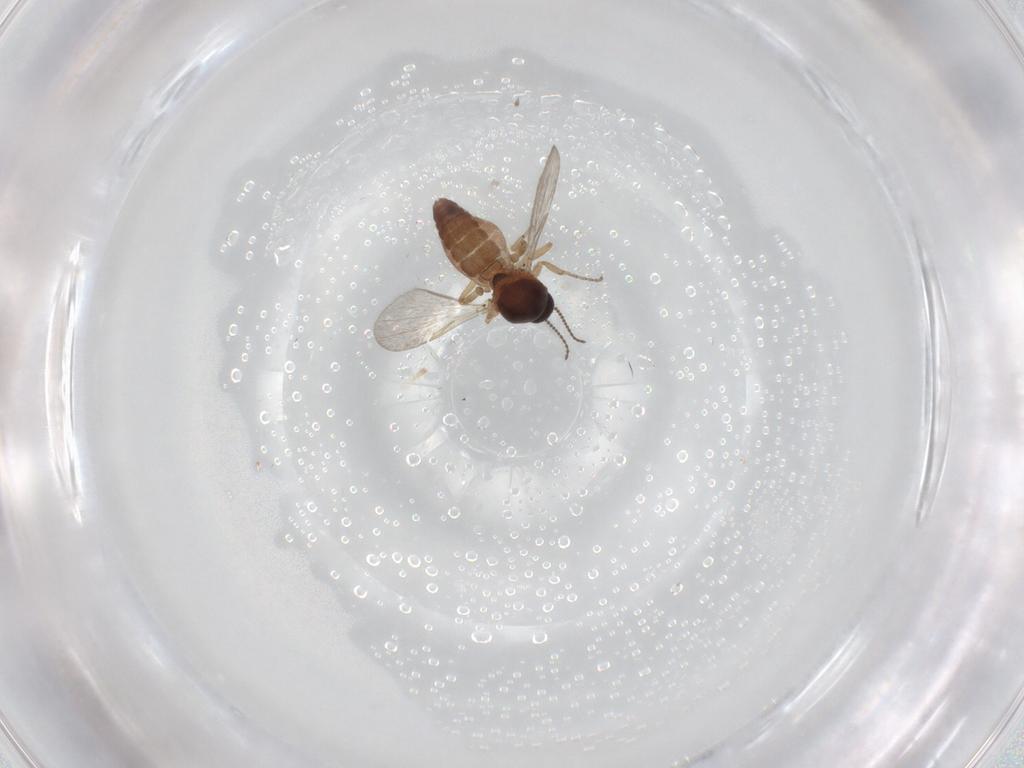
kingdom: Animalia
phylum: Arthropoda
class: Insecta
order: Diptera
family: Ceratopogonidae
